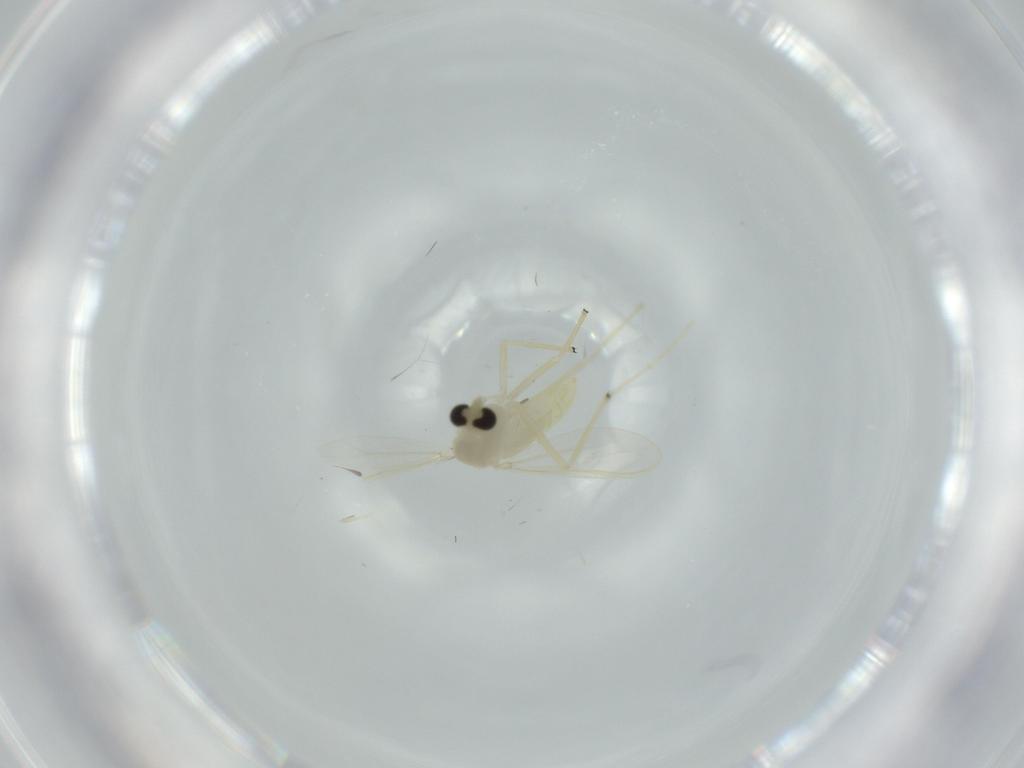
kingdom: Animalia
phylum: Arthropoda
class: Insecta
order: Diptera
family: Chironomidae
